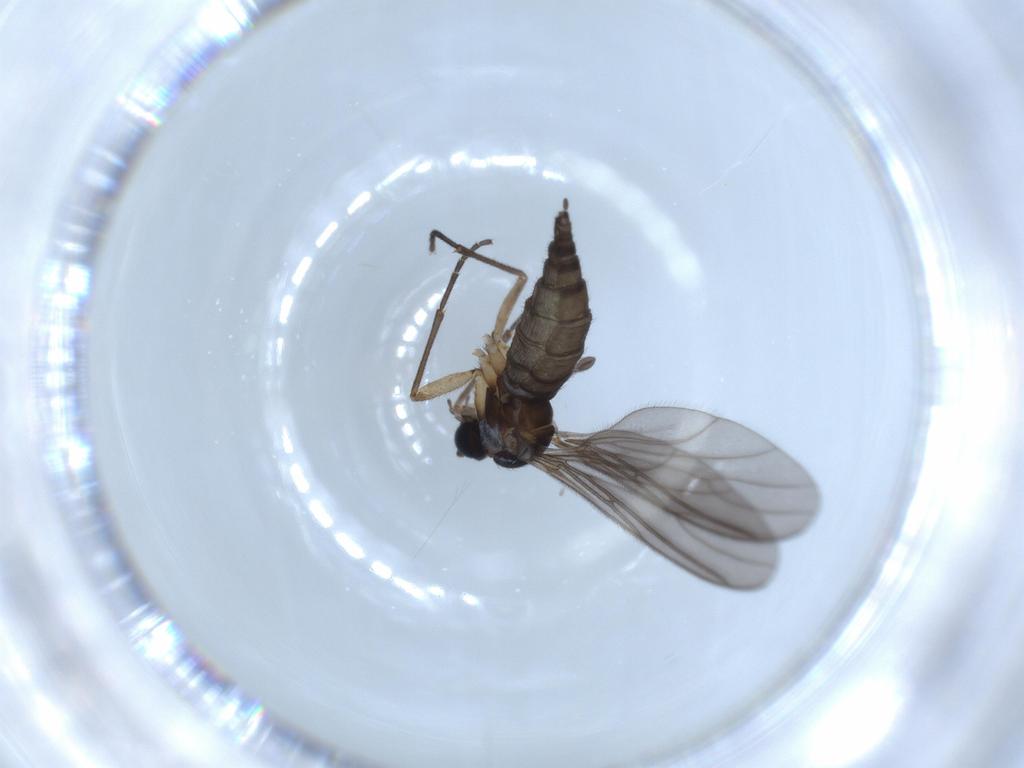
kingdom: Animalia
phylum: Arthropoda
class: Insecta
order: Diptera
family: Sciaridae
